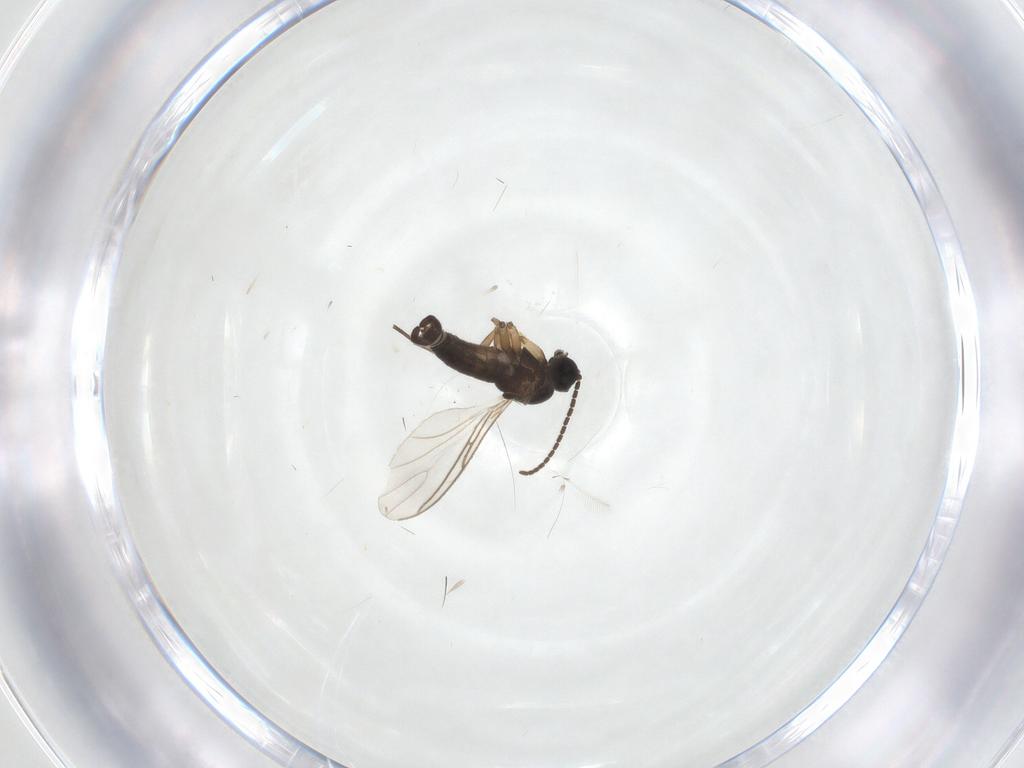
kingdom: Animalia
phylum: Arthropoda
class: Insecta
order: Diptera
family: Sciaridae
